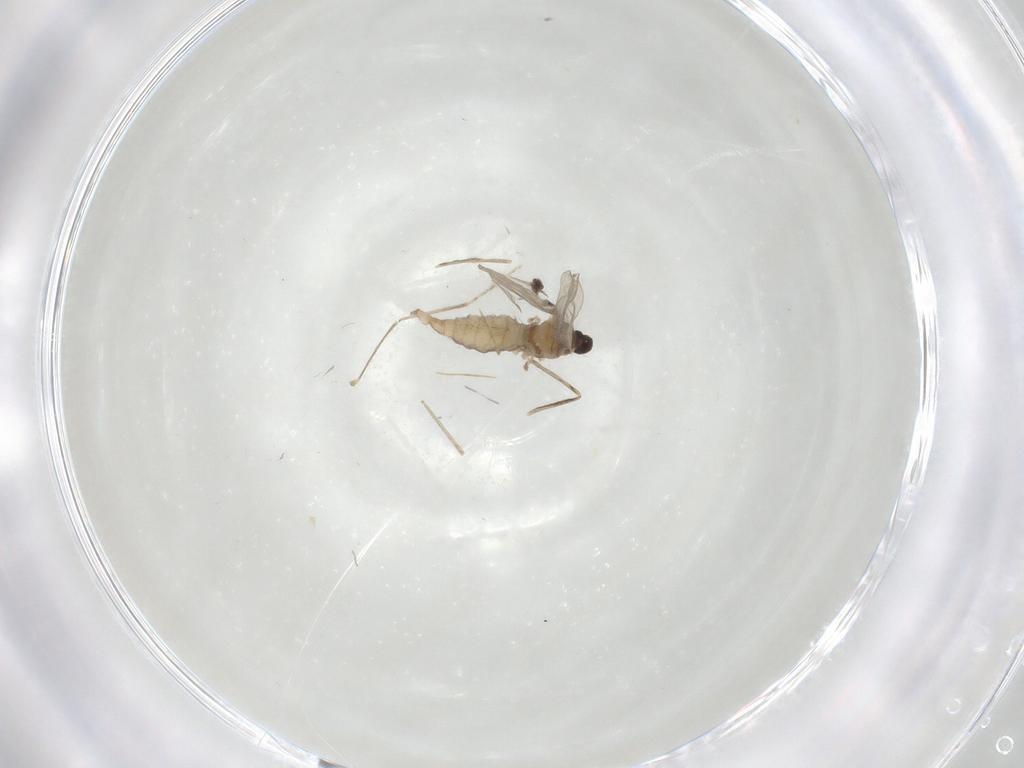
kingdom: Animalia
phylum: Arthropoda
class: Insecta
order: Diptera
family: Cecidomyiidae
